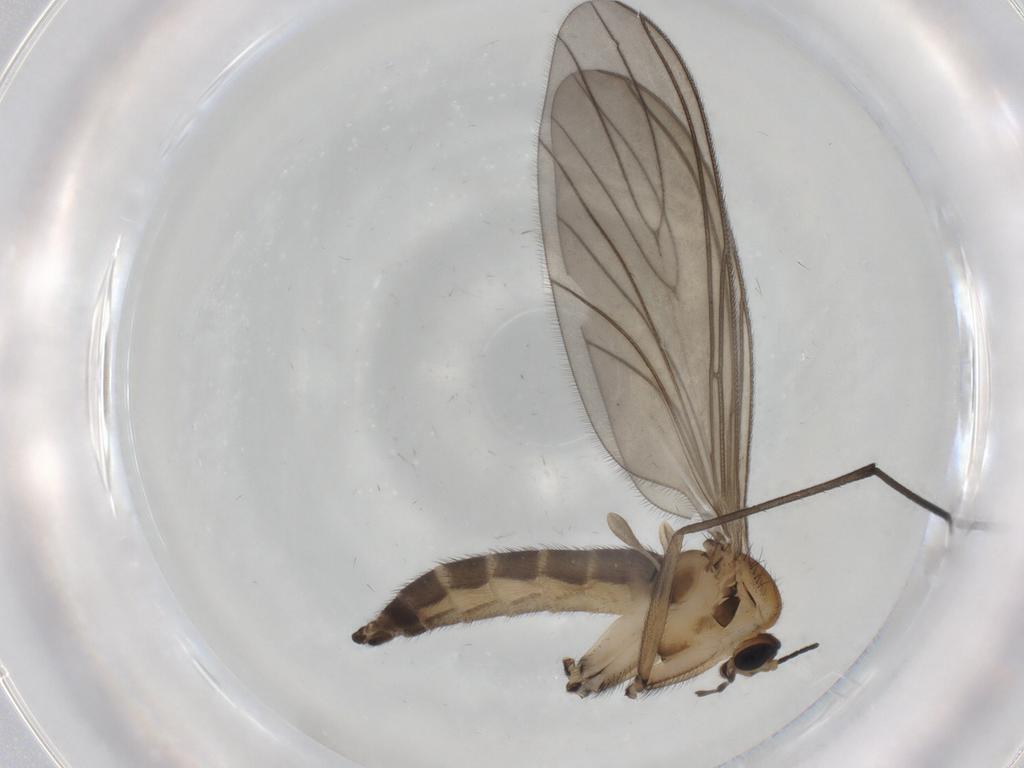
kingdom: Animalia
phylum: Arthropoda
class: Insecta
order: Diptera
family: Sciaridae
